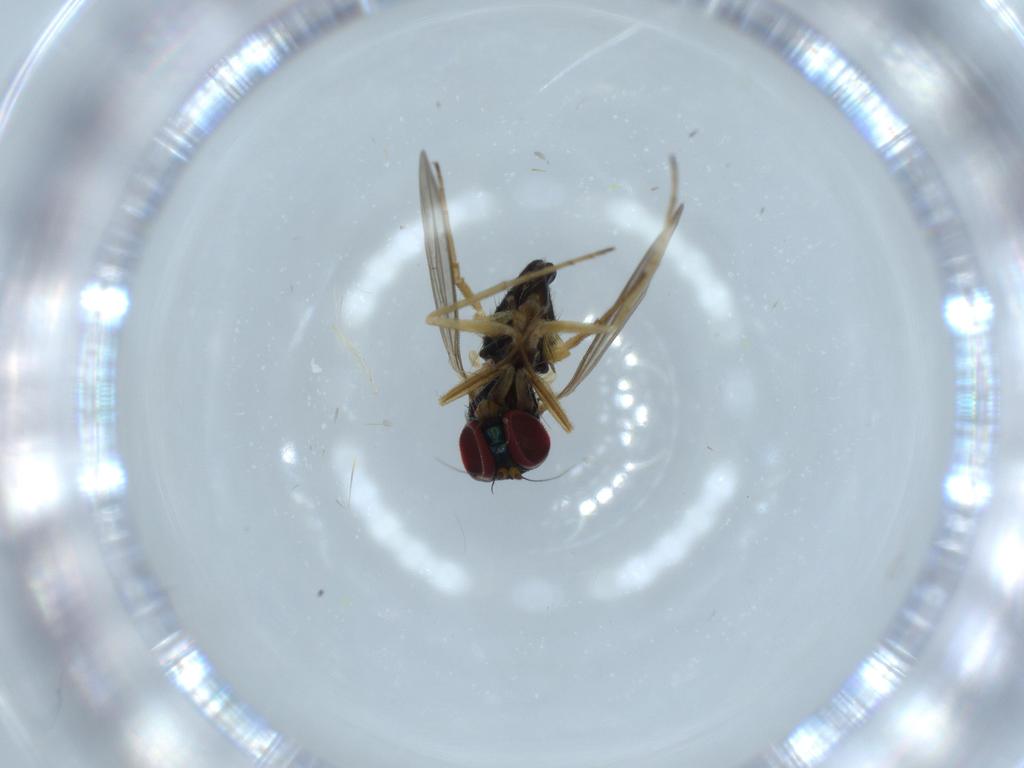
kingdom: Animalia
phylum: Arthropoda
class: Insecta
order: Diptera
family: Dolichopodidae
